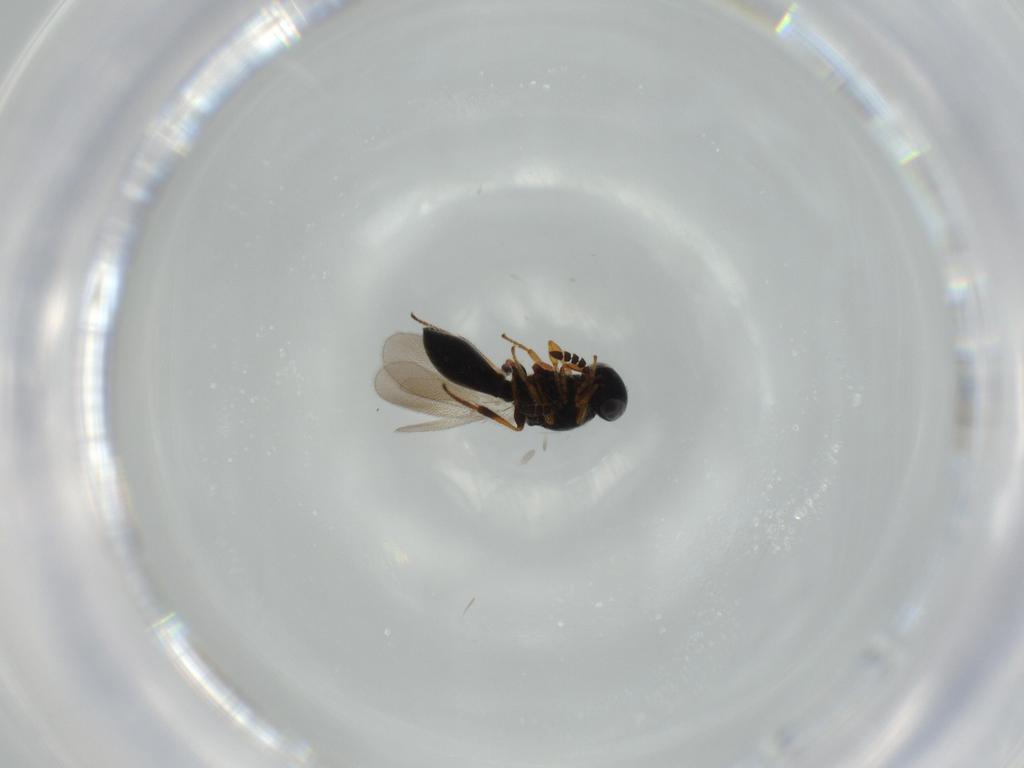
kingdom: Animalia
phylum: Arthropoda
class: Insecta
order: Hymenoptera
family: Platygastridae
